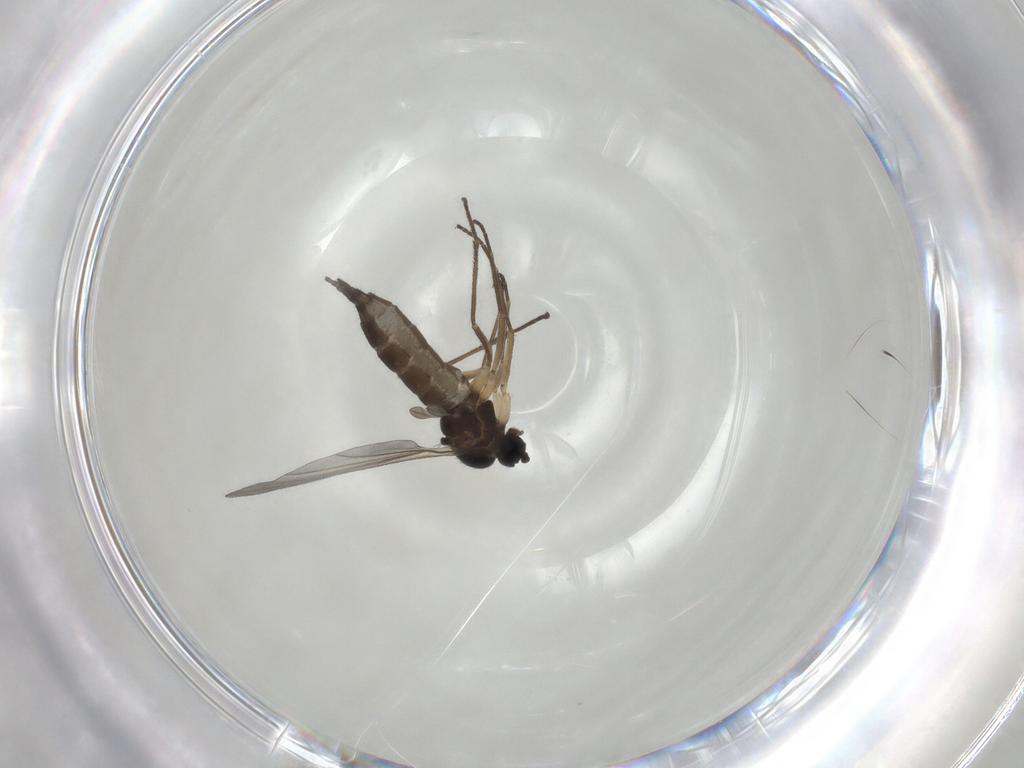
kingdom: Animalia
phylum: Arthropoda
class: Insecta
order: Diptera
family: Sciaridae
